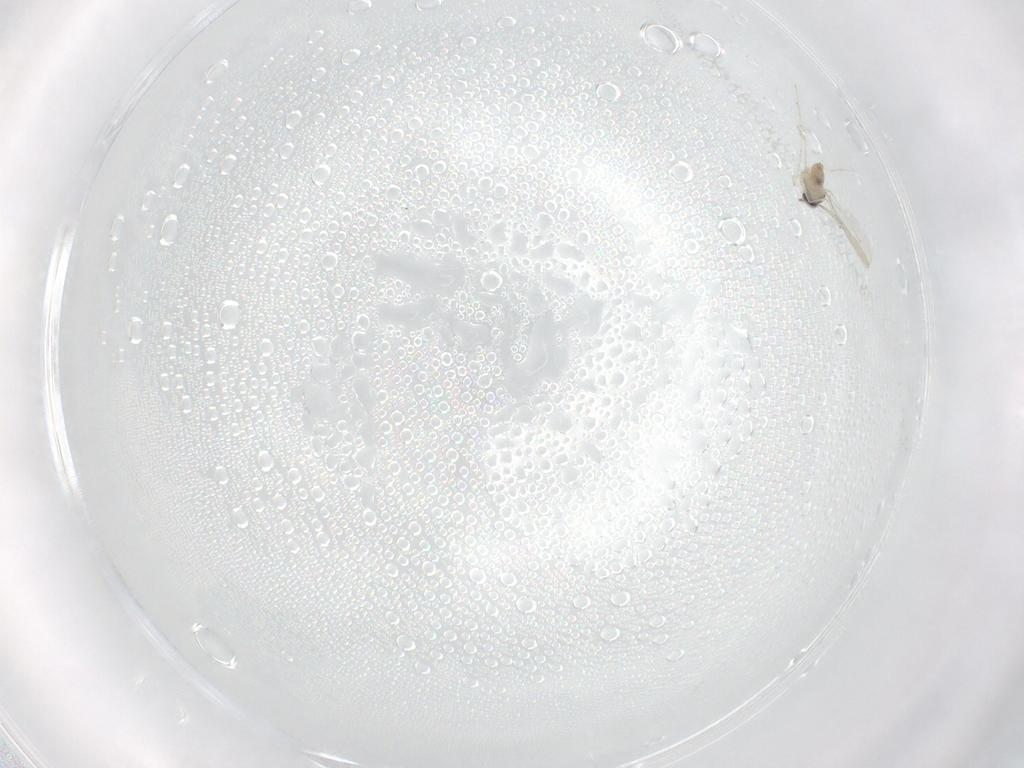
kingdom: Animalia
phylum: Arthropoda
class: Insecta
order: Diptera
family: Cecidomyiidae
